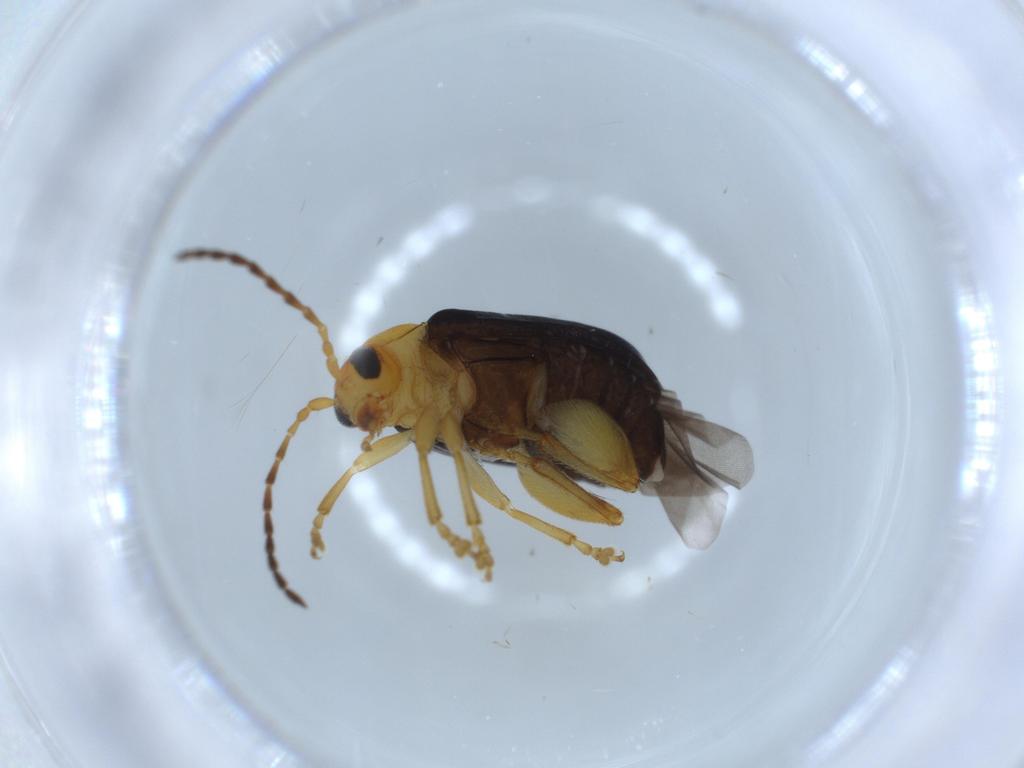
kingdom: Animalia
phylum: Arthropoda
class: Insecta
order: Coleoptera
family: Chrysomelidae
